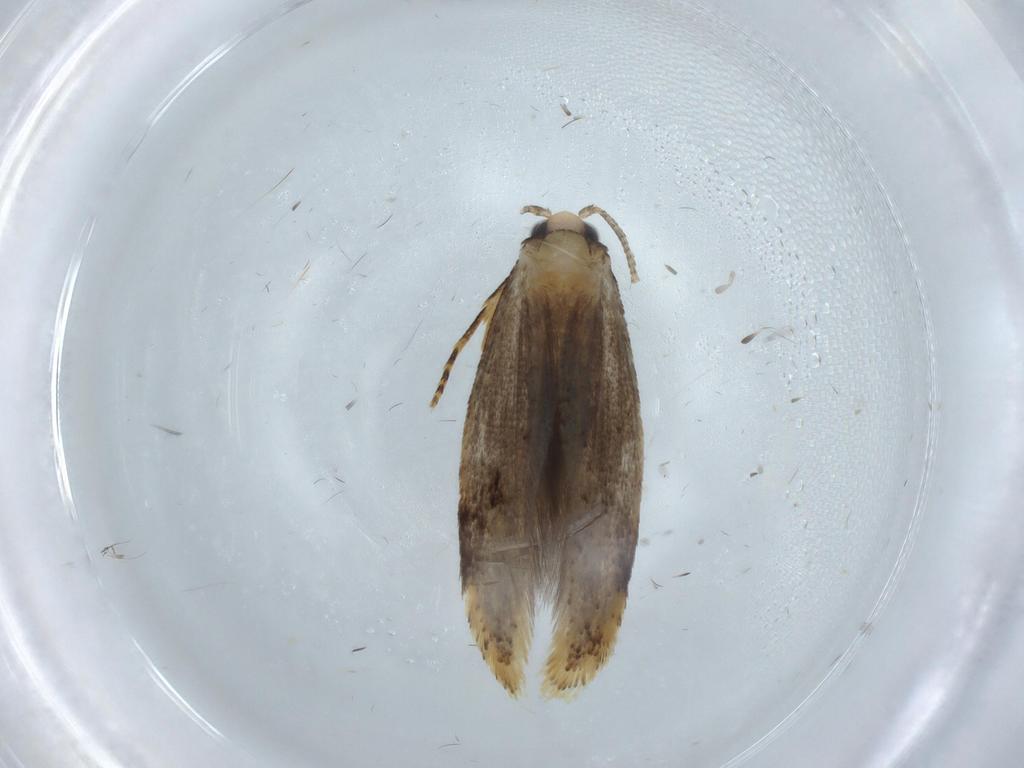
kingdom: Animalia
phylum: Arthropoda
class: Insecta
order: Lepidoptera
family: Tineidae
